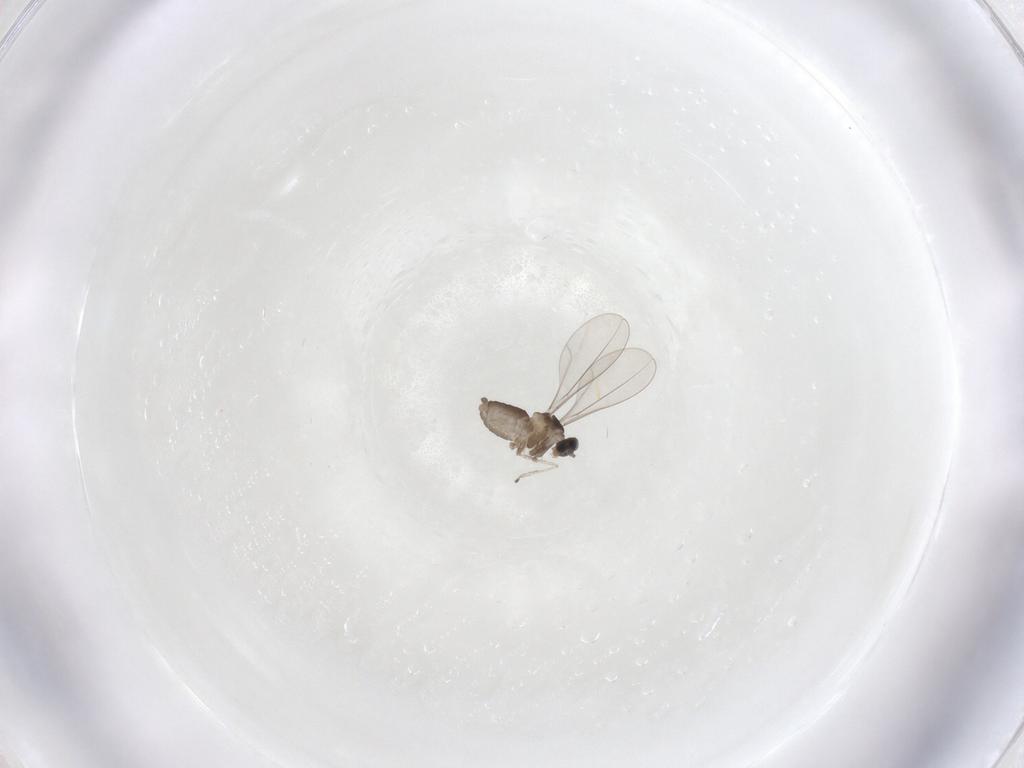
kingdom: Animalia
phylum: Arthropoda
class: Insecta
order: Diptera
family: Cecidomyiidae
